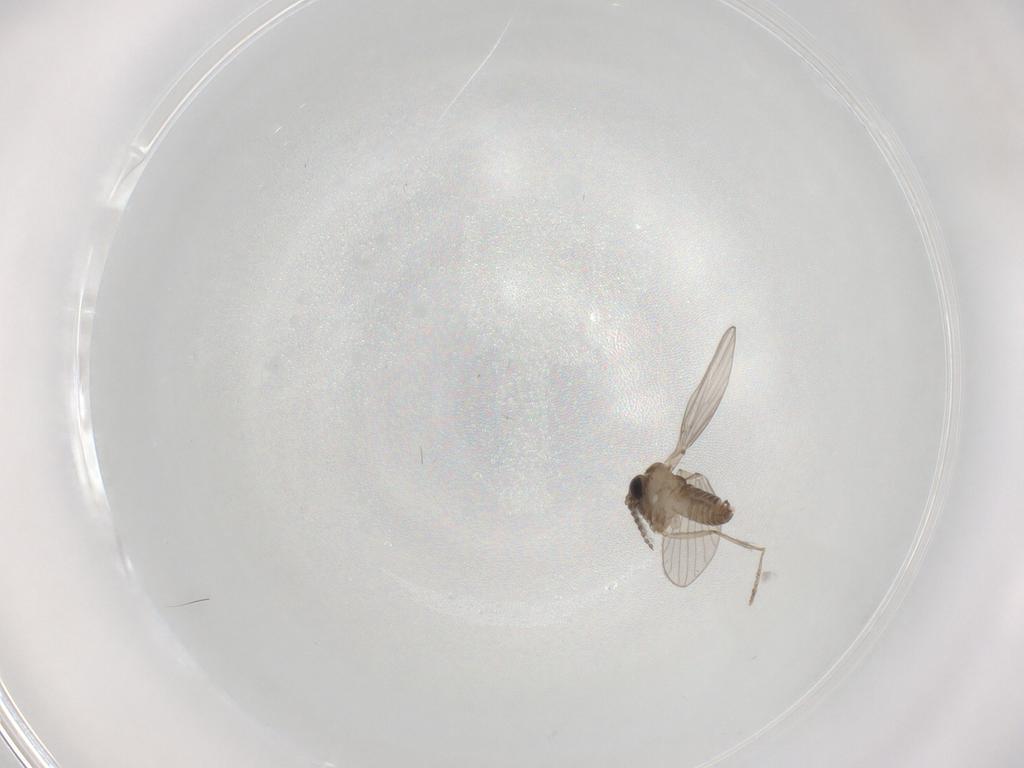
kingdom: Animalia
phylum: Arthropoda
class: Insecta
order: Diptera
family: Psychodidae
